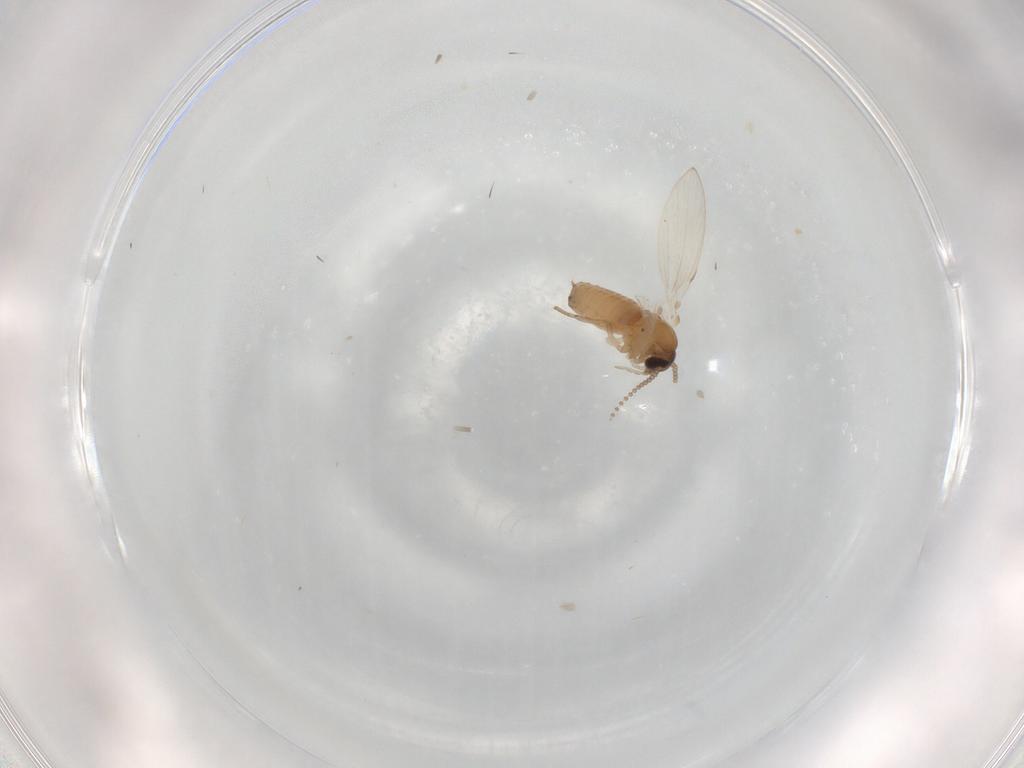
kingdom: Animalia
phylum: Arthropoda
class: Insecta
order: Diptera
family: Psychodidae
